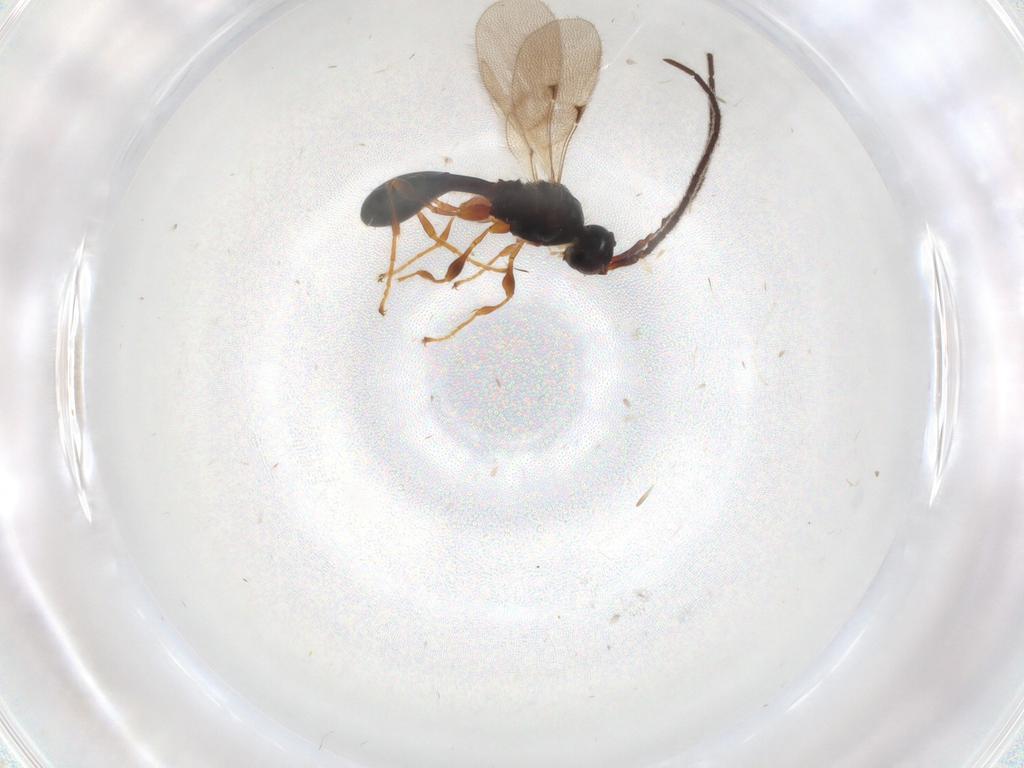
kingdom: Animalia
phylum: Arthropoda
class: Insecta
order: Hymenoptera
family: Diapriidae
